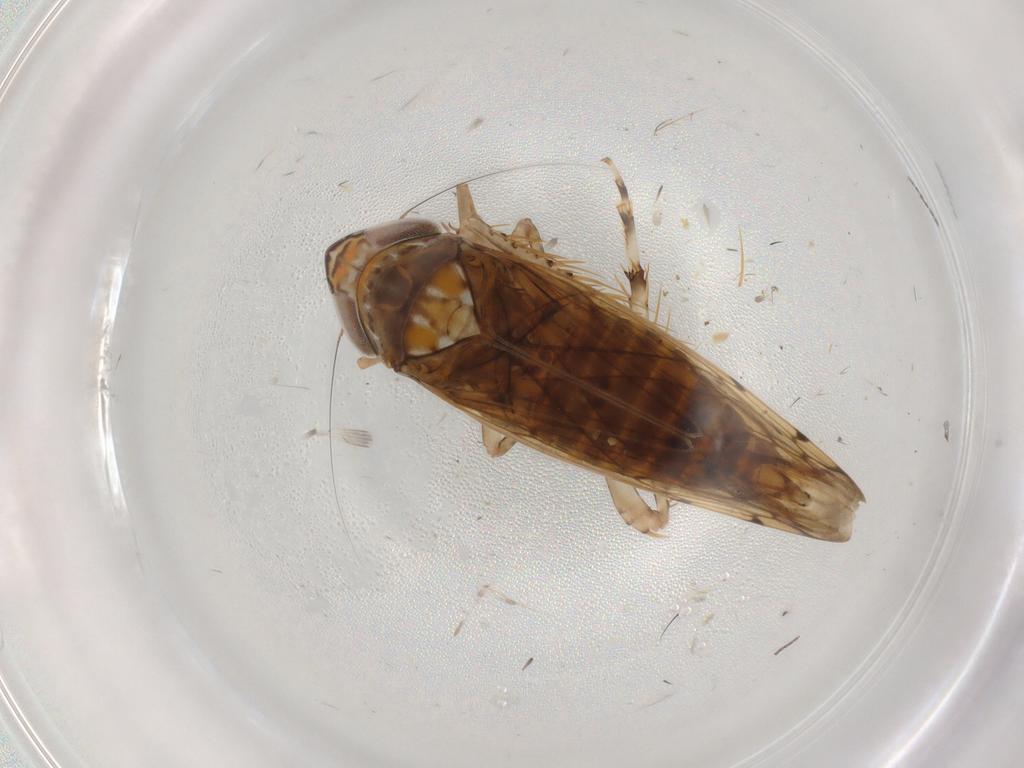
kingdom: Animalia
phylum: Arthropoda
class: Insecta
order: Hemiptera
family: Cicadellidae
